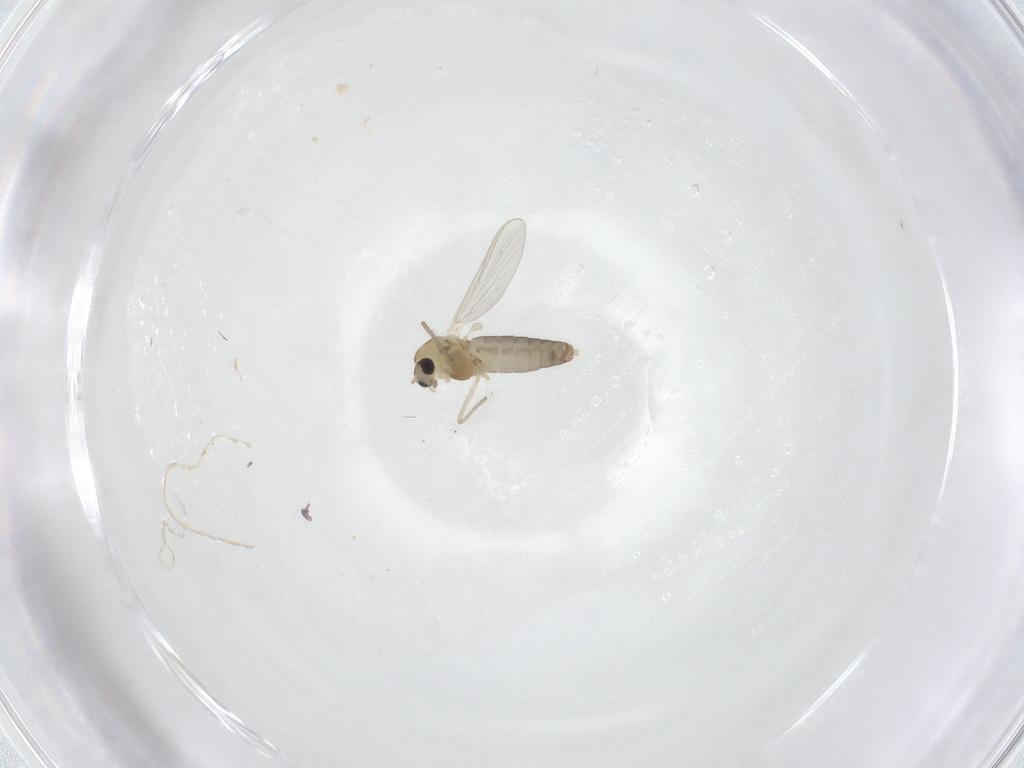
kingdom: Animalia
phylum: Arthropoda
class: Insecta
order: Diptera
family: Chironomidae
